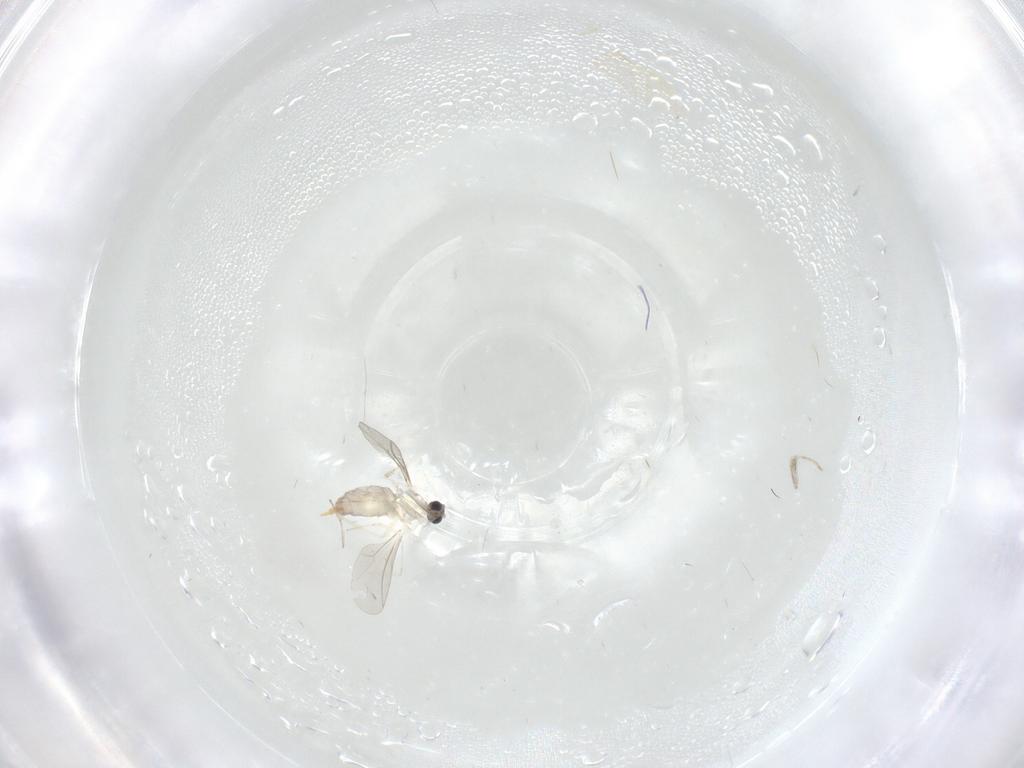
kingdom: Animalia
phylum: Arthropoda
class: Insecta
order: Diptera
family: Cecidomyiidae
